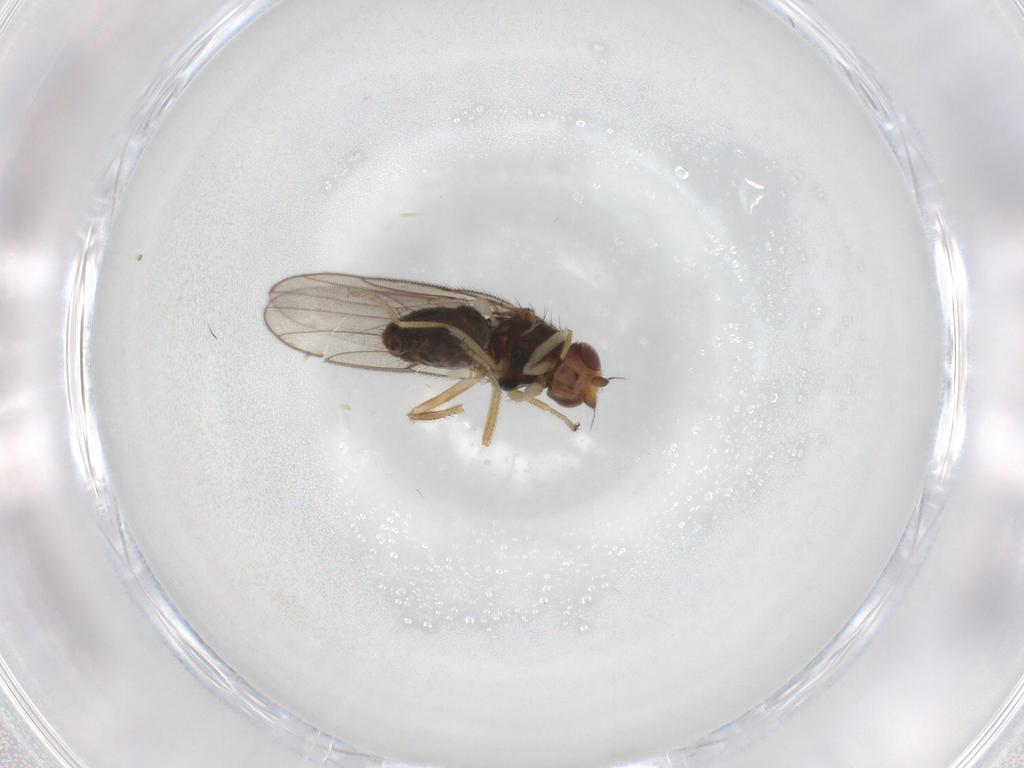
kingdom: Animalia
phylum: Arthropoda
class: Insecta
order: Diptera
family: Chloropidae
